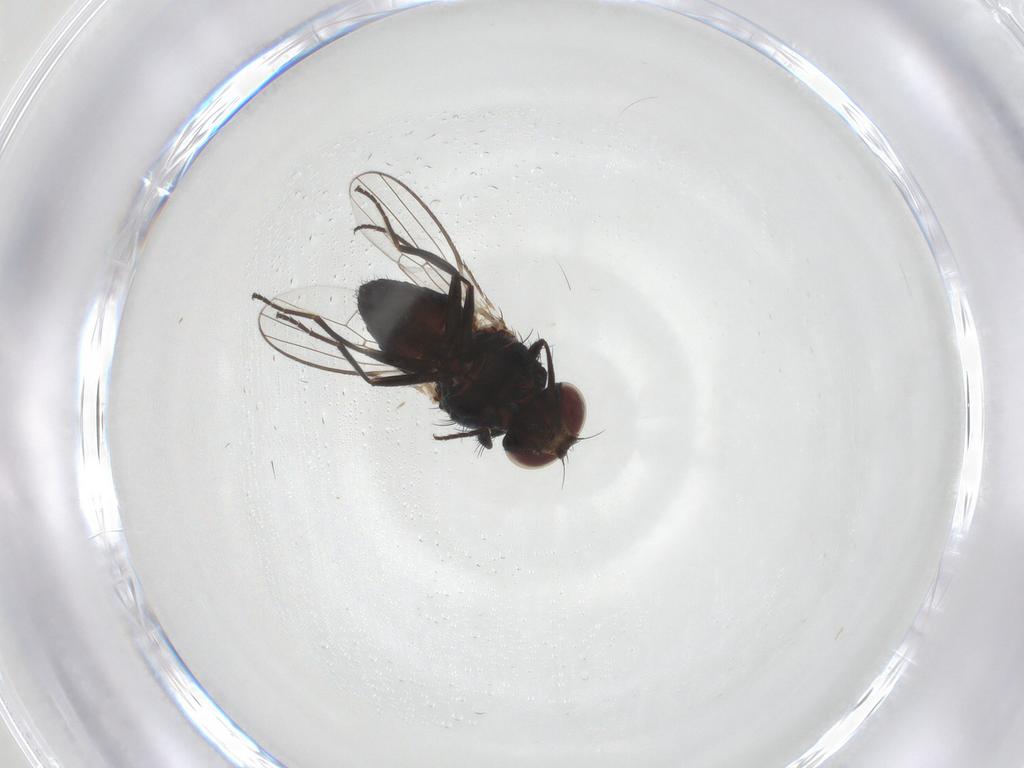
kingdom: Animalia
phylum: Arthropoda
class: Insecta
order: Diptera
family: Carnidae
